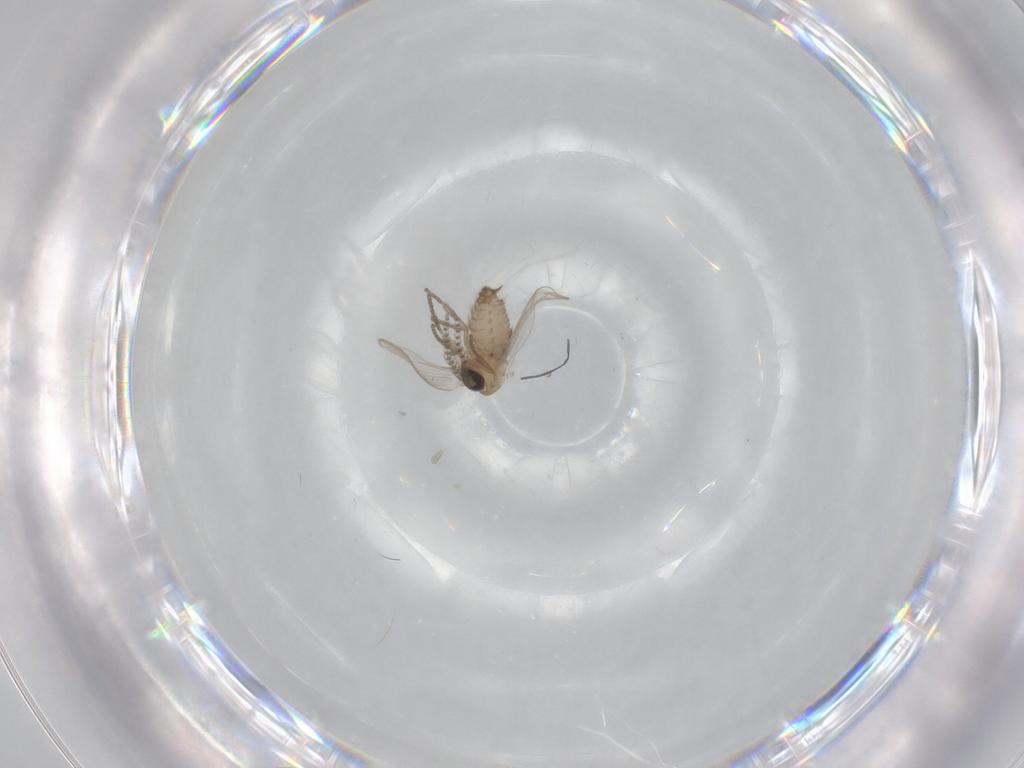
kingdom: Animalia
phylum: Arthropoda
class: Insecta
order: Diptera
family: Psychodidae
